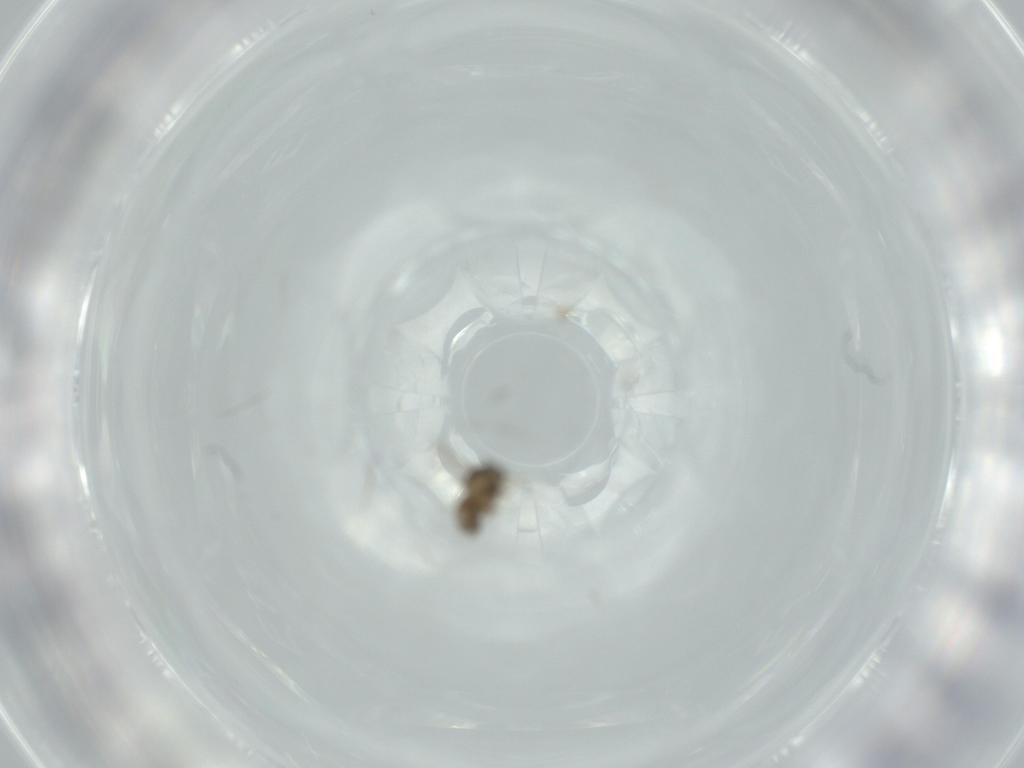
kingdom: Animalia
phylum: Arthropoda
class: Insecta
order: Diptera
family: Cecidomyiidae
